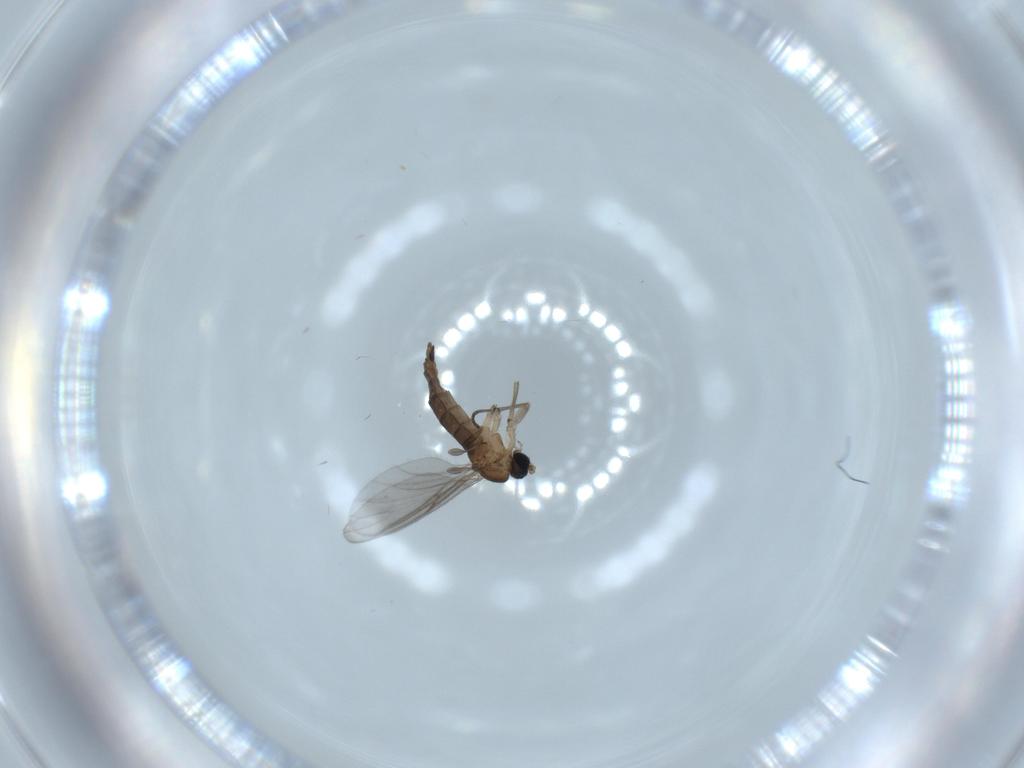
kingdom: Animalia
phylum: Arthropoda
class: Insecta
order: Diptera
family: Sciaridae
